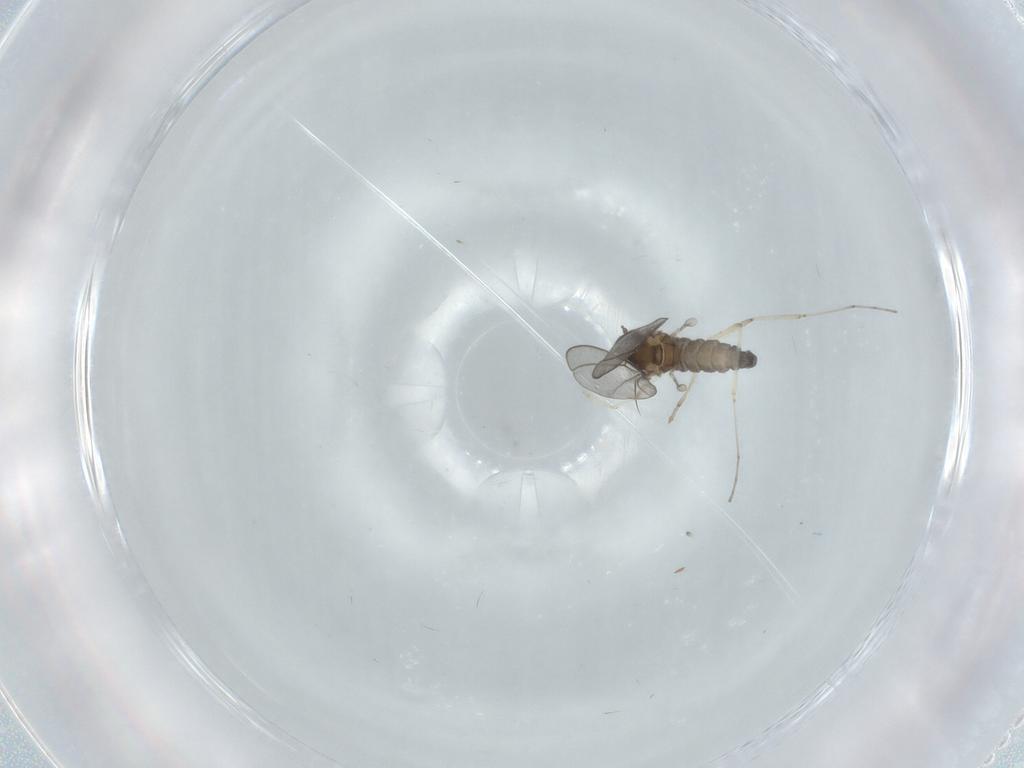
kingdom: Animalia
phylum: Arthropoda
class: Insecta
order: Diptera
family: Cecidomyiidae
